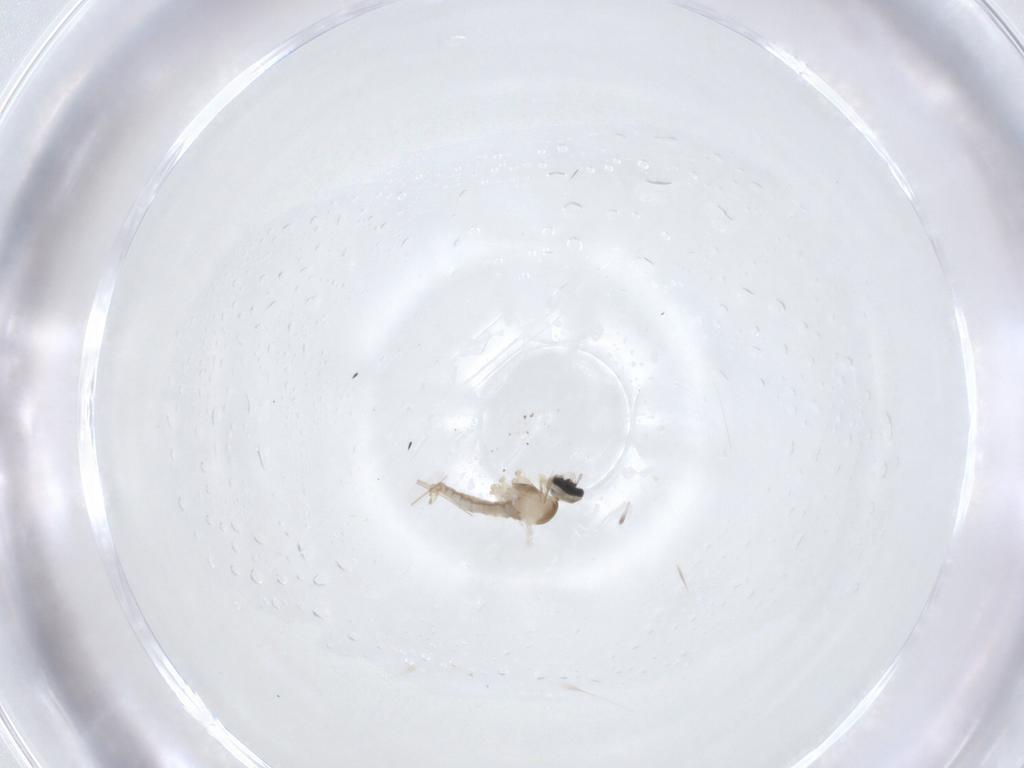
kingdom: Animalia
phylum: Arthropoda
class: Insecta
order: Diptera
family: Cecidomyiidae
